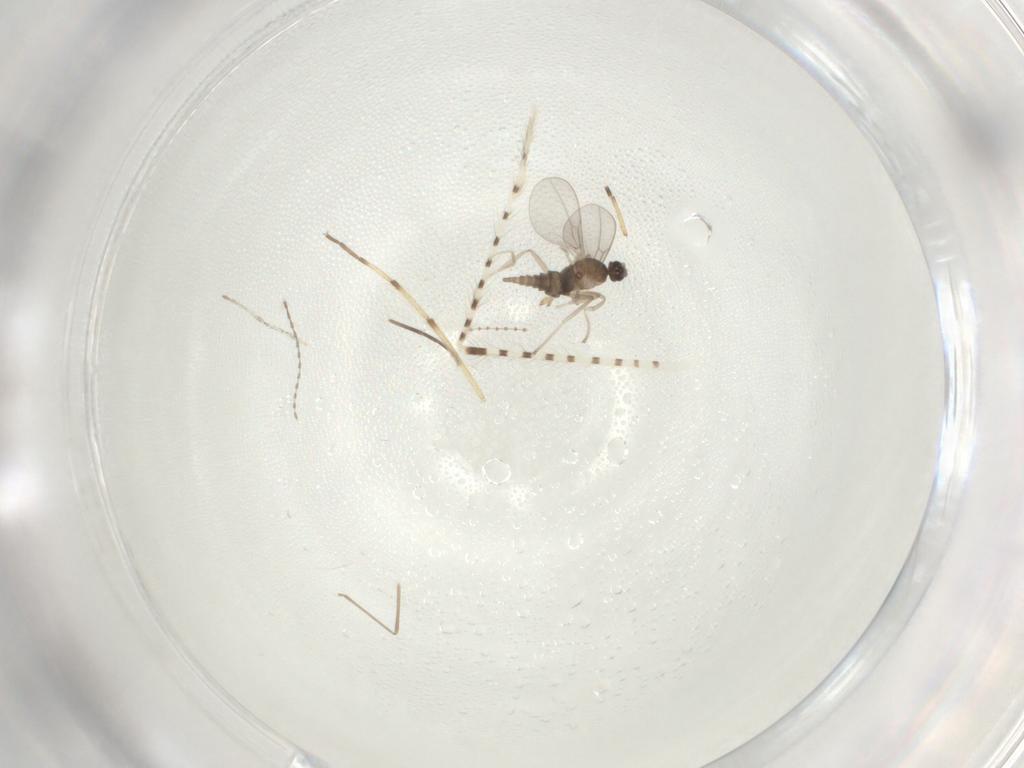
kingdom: Animalia
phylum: Arthropoda
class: Insecta
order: Diptera
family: Cecidomyiidae
